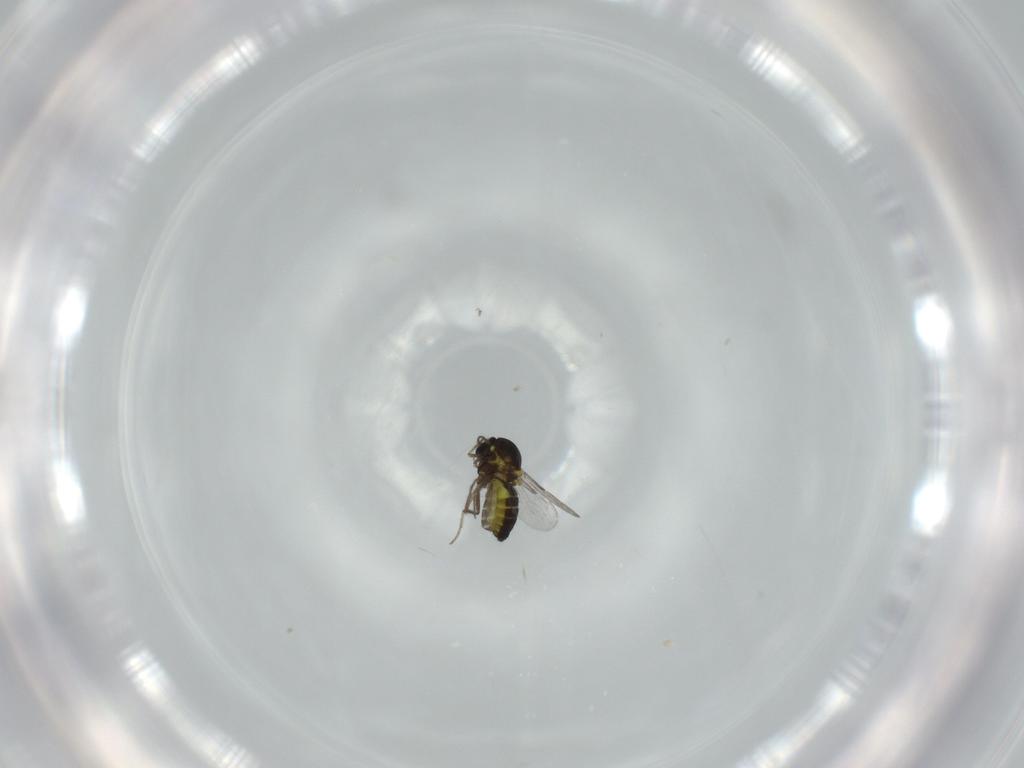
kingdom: Animalia
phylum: Arthropoda
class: Insecta
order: Diptera
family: Ceratopogonidae
